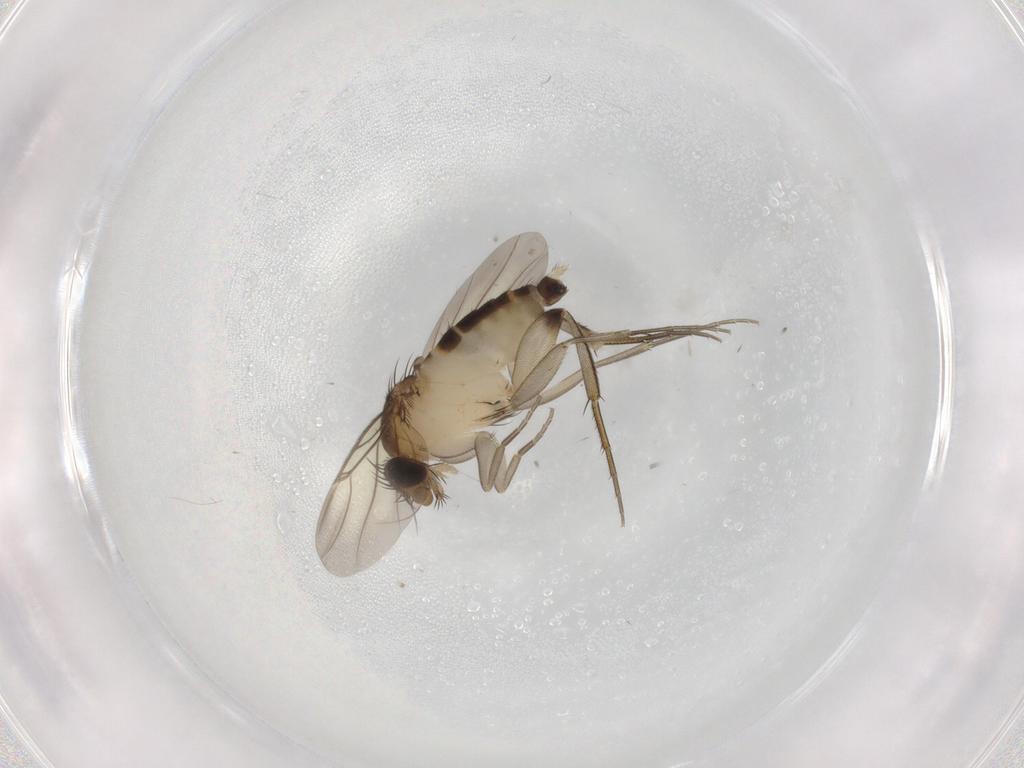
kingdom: Animalia
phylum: Arthropoda
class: Insecta
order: Diptera
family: Phoridae
